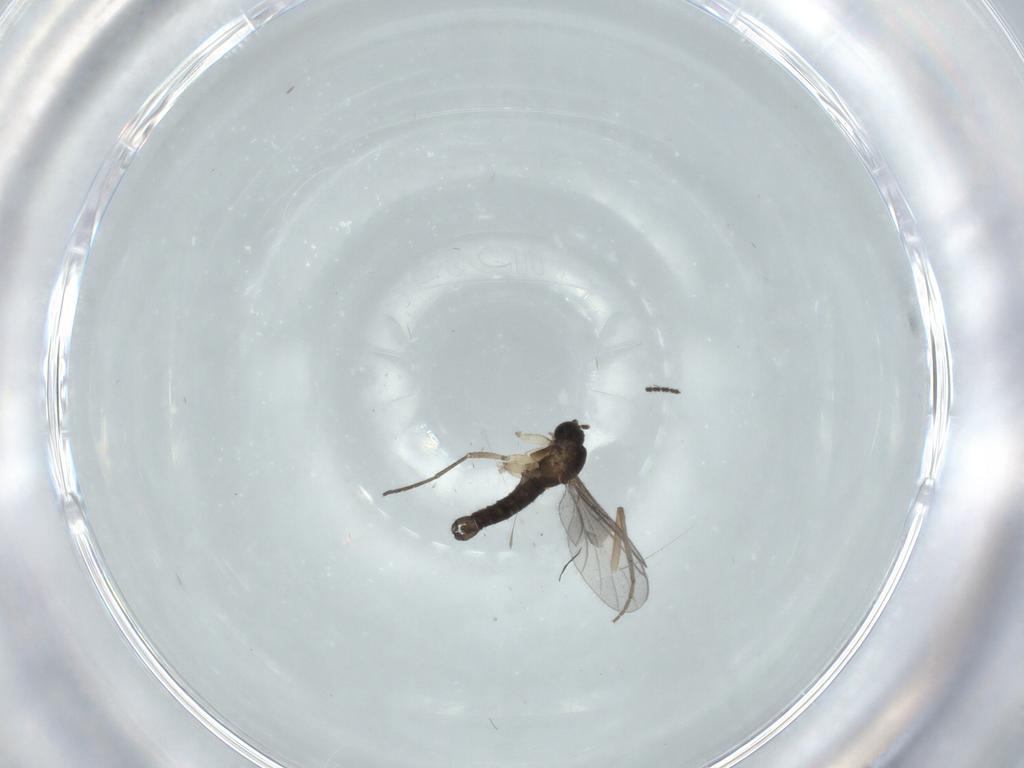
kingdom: Animalia
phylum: Arthropoda
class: Insecta
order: Diptera
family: Sciaridae
